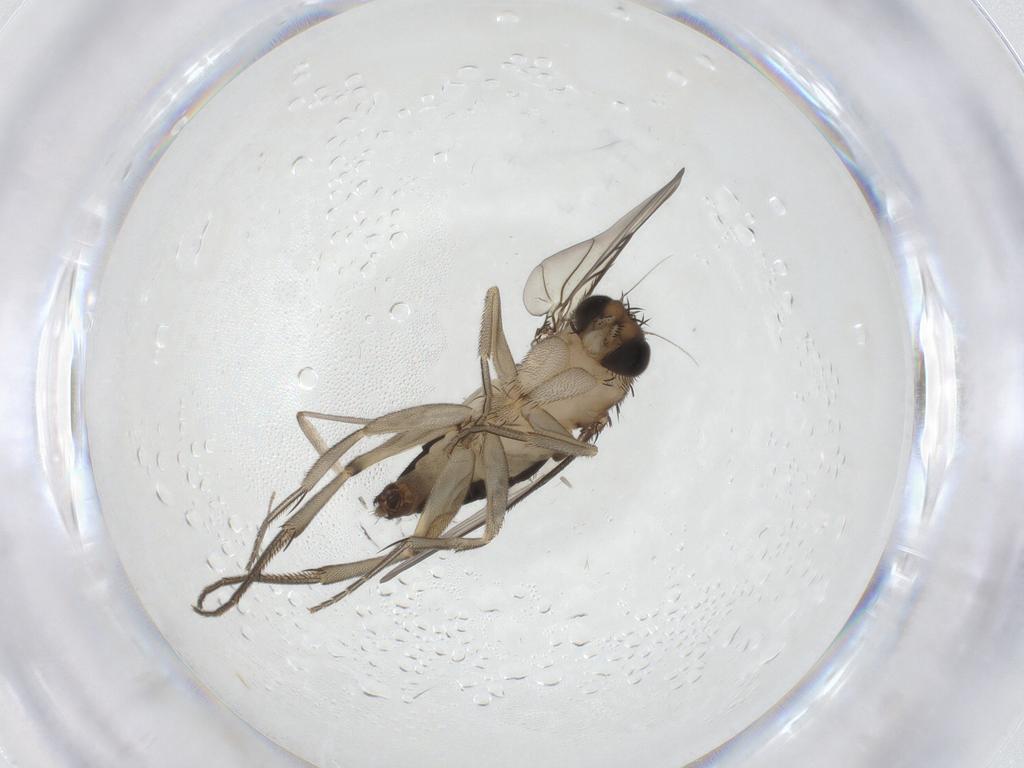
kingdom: Animalia
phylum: Arthropoda
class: Insecta
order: Diptera
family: Phoridae
